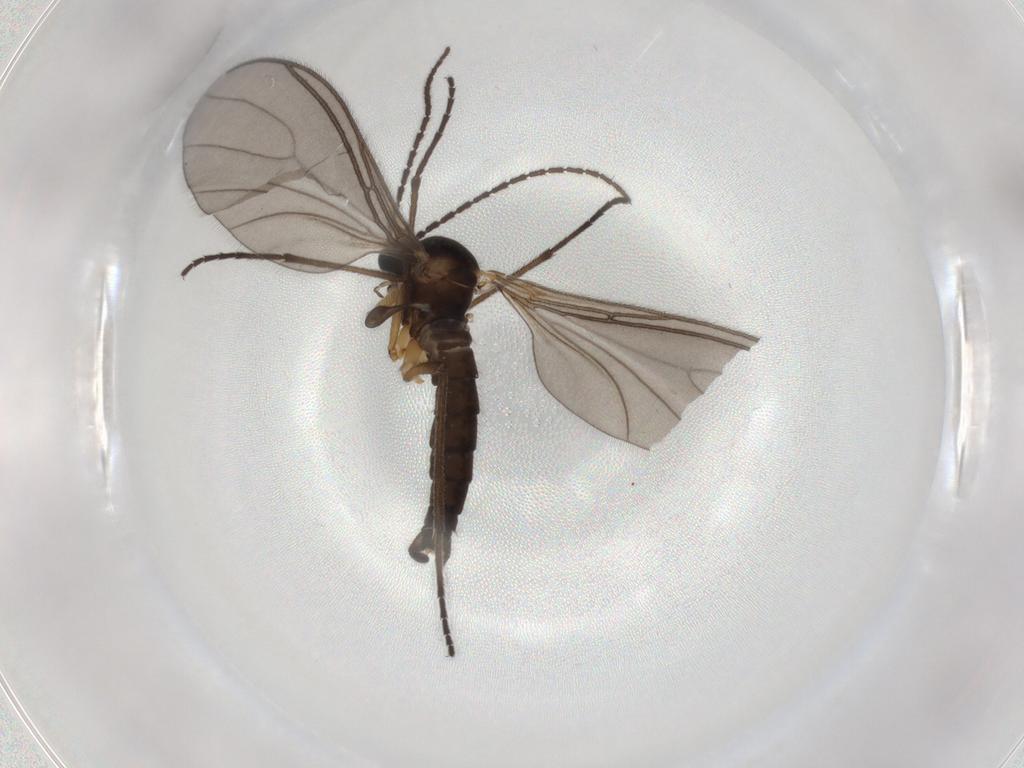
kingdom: Animalia
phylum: Arthropoda
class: Insecta
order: Diptera
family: Sciaridae
